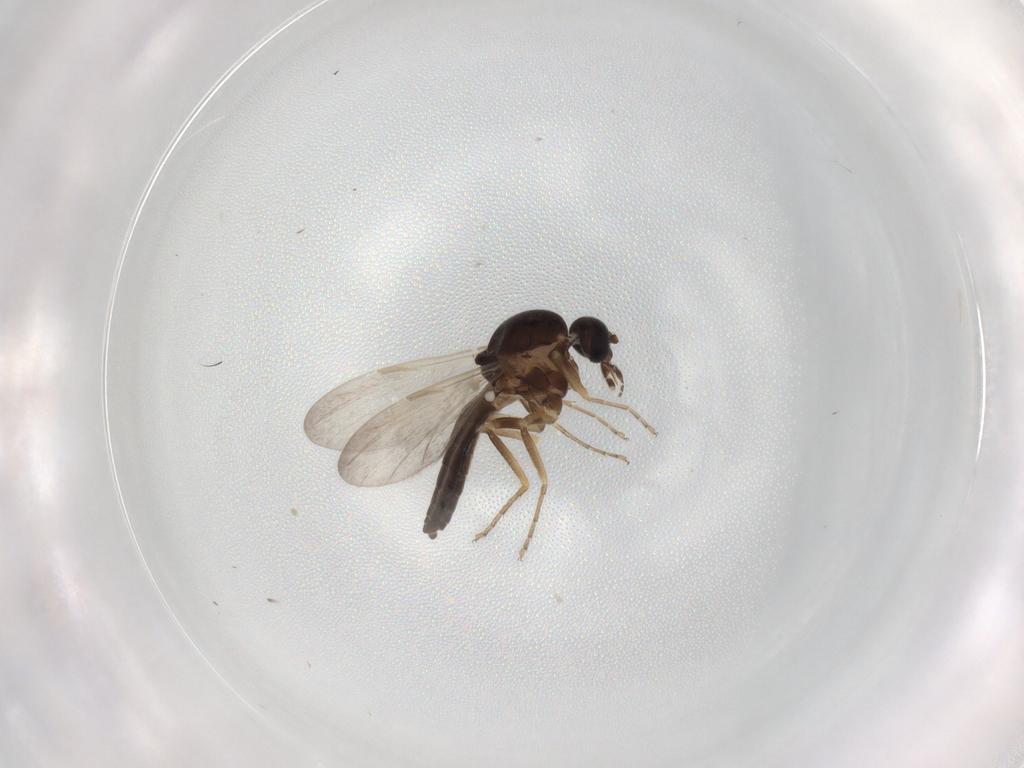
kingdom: Animalia
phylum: Arthropoda
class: Insecta
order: Diptera
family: Ceratopogonidae
